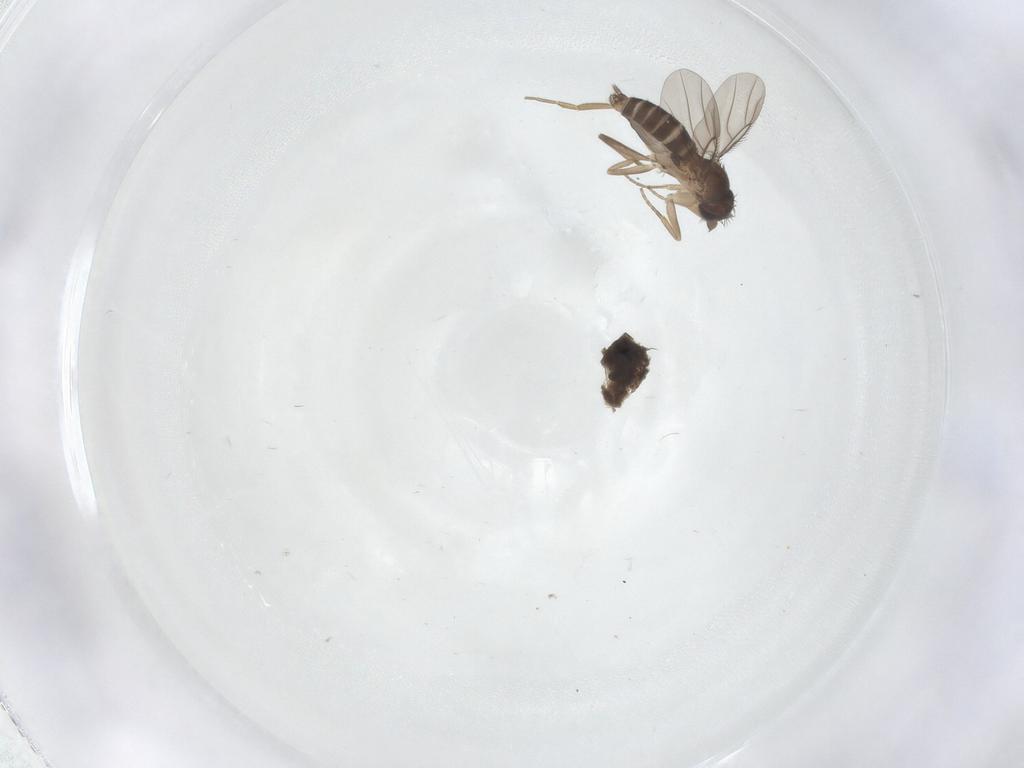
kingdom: Animalia
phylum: Arthropoda
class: Insecta
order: Diptera
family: Phoridae
